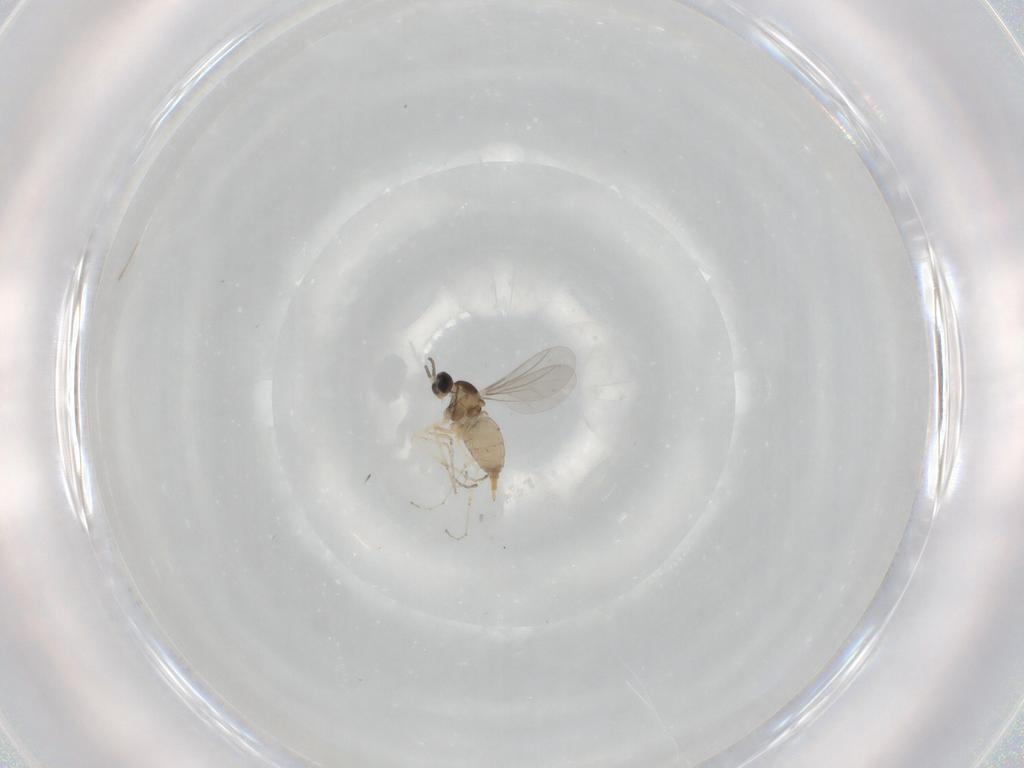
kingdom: Animalia
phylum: Arthropoda
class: Insecta
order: Diptera
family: Cecidomyiidae
